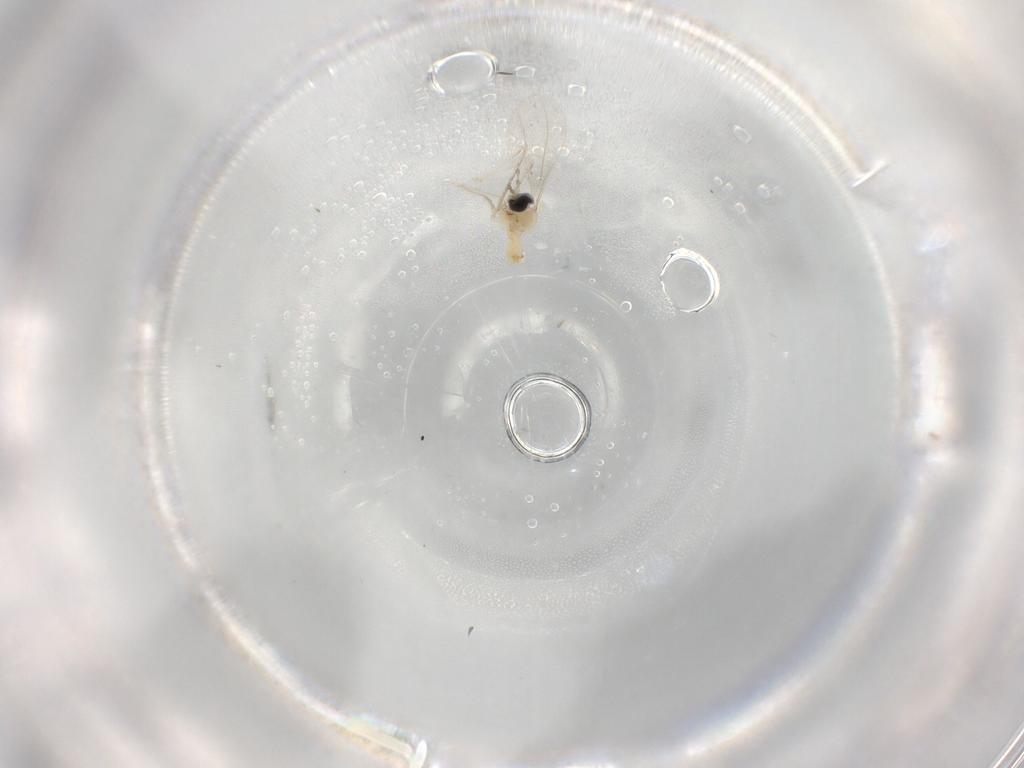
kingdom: Animalia
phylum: Arthropoda
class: Insecta
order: Diptera
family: Cecidomyiidae
